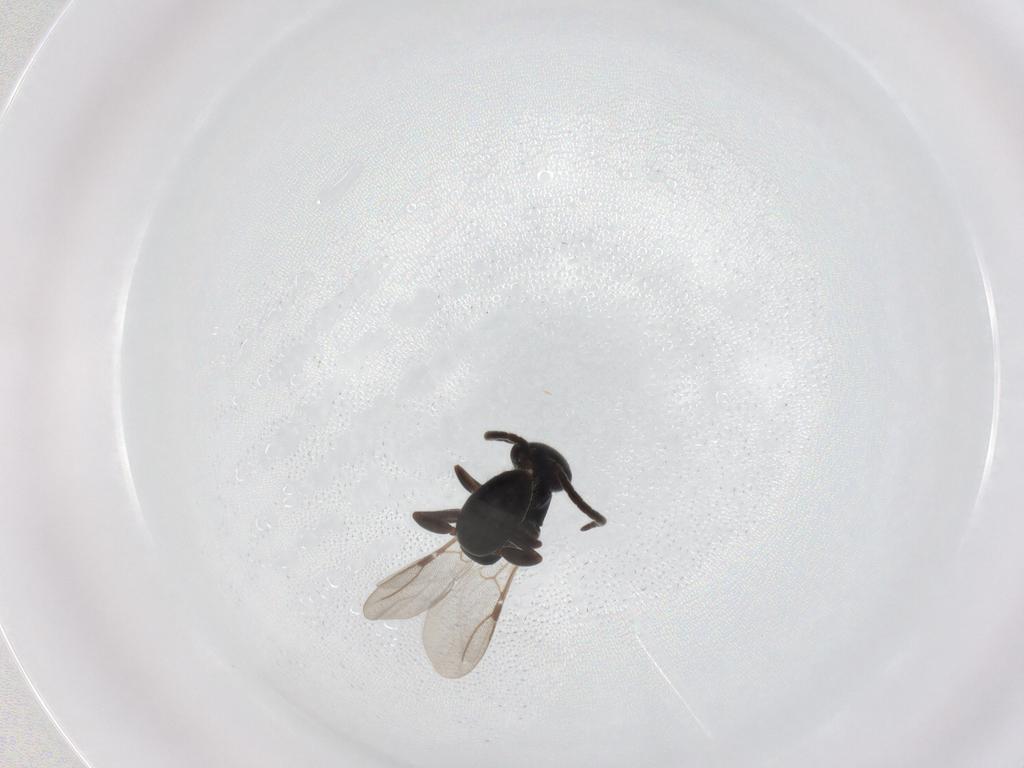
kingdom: Animalia
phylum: Arthropoda
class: Insecta
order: Hymenoptera
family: Bethylidae
